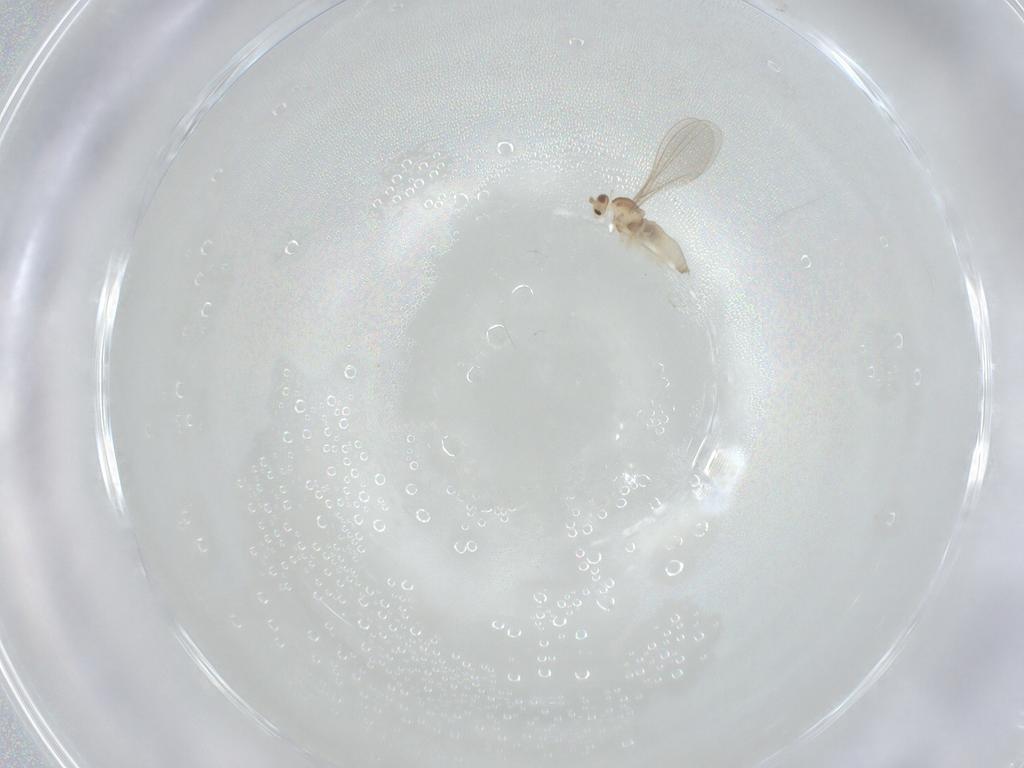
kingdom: Animalia
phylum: Arthropoda
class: Insecta
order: Diptera
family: Cecidomyiidae
